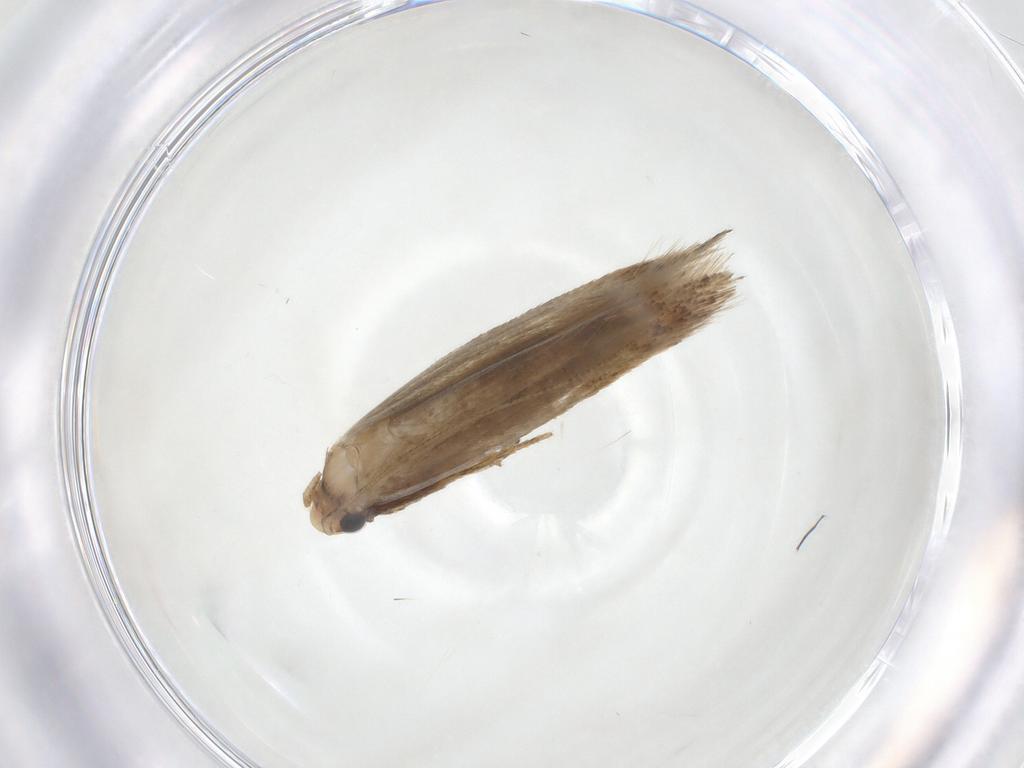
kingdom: Animalia
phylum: Arthropoda
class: Insecta
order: Lepidoptera
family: Tineidae
